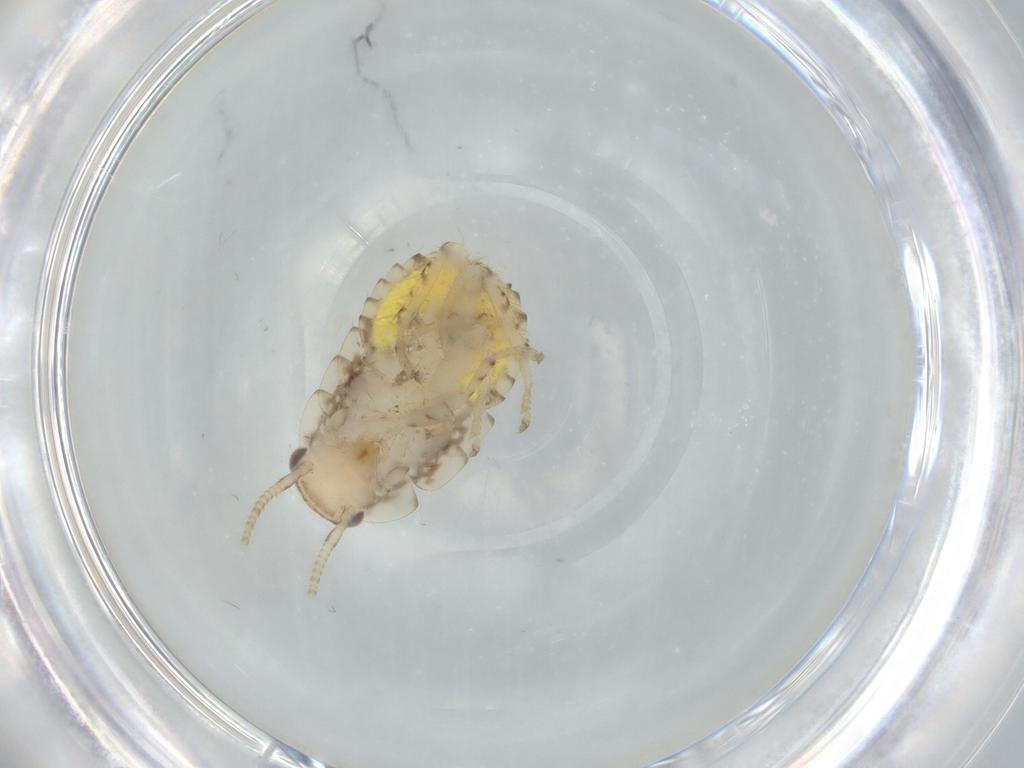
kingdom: Animalia
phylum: Arthropoda
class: Insecta
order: Blattodea
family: Ectobiidae
